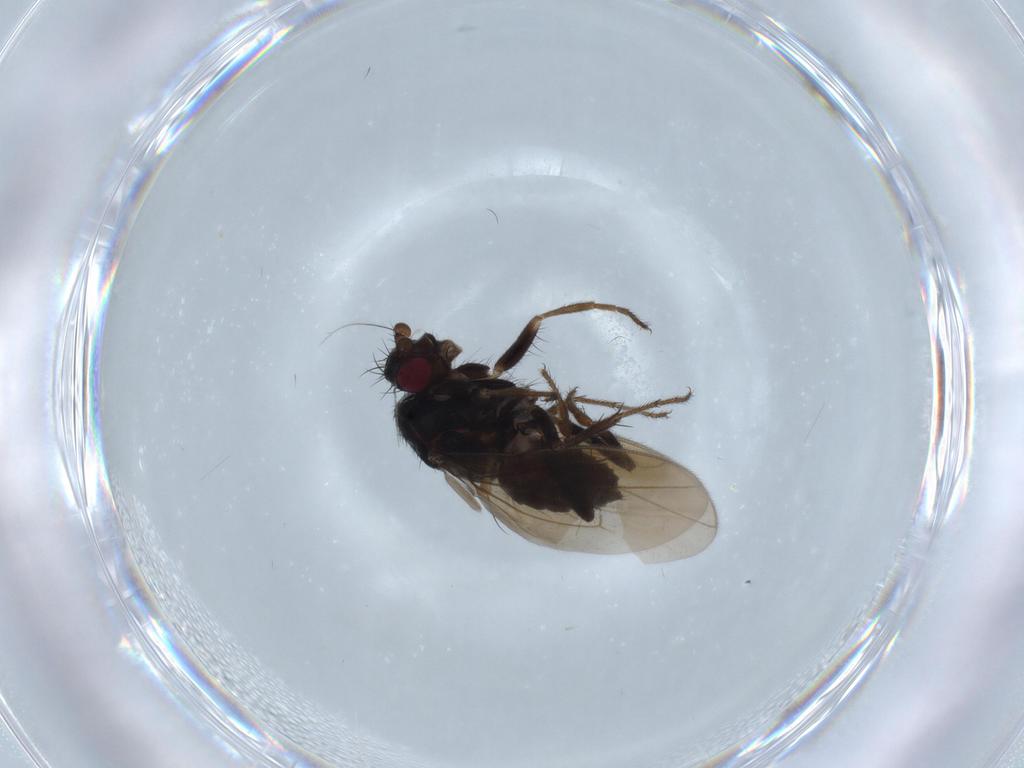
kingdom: Animalia
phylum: Arthropoda
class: Insecta
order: Diptera
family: Sphaeroceridae
